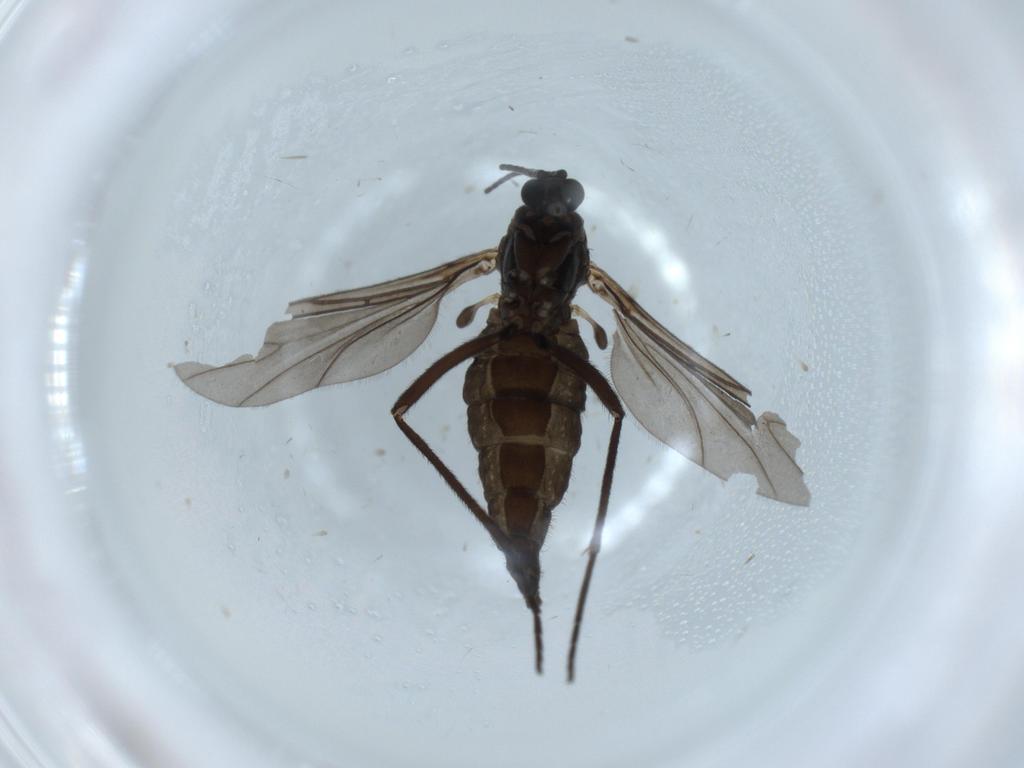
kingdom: Animalia
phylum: Arthropoda
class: Insecta
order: Diptera
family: Sciaridae
